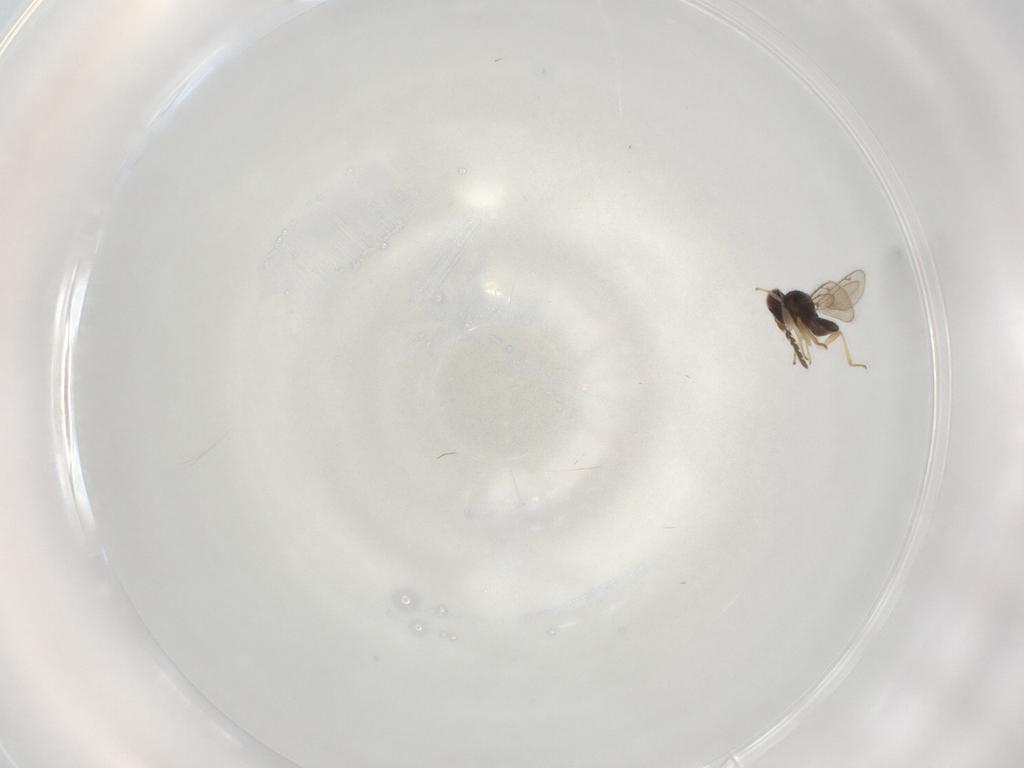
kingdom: Animalia
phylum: Arthropoda
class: Insecta
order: Hymenoptera
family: Eulophidae
